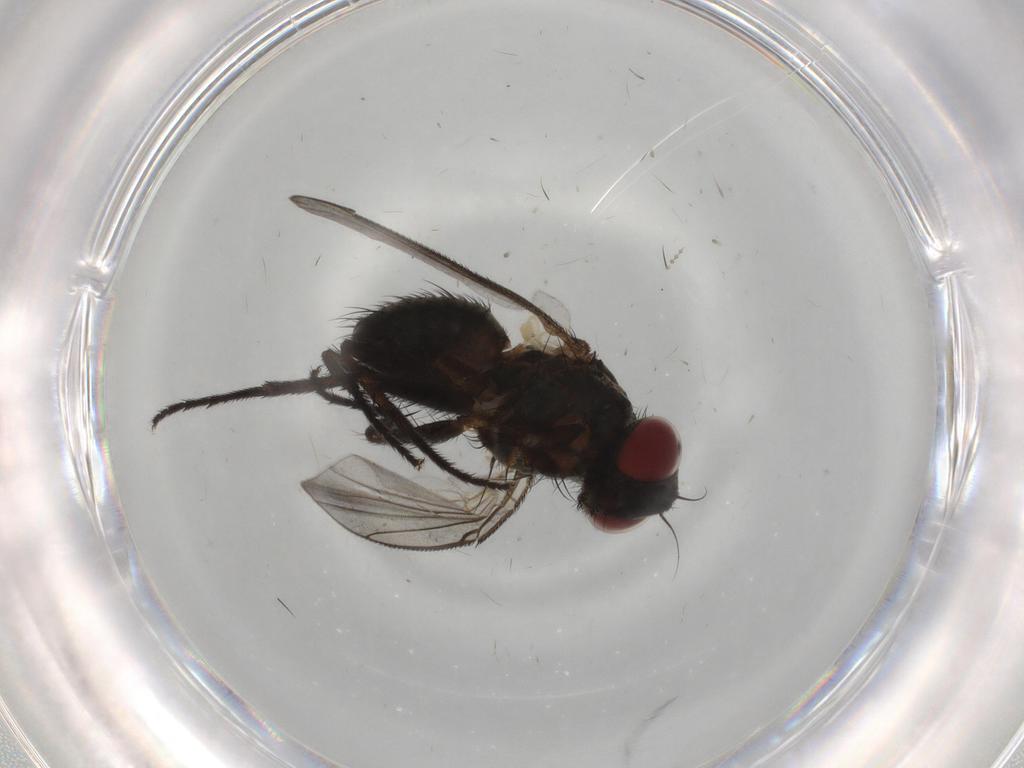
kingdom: Animalia
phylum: Arthropoda
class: Insecta
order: Diptera
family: Muscidae
